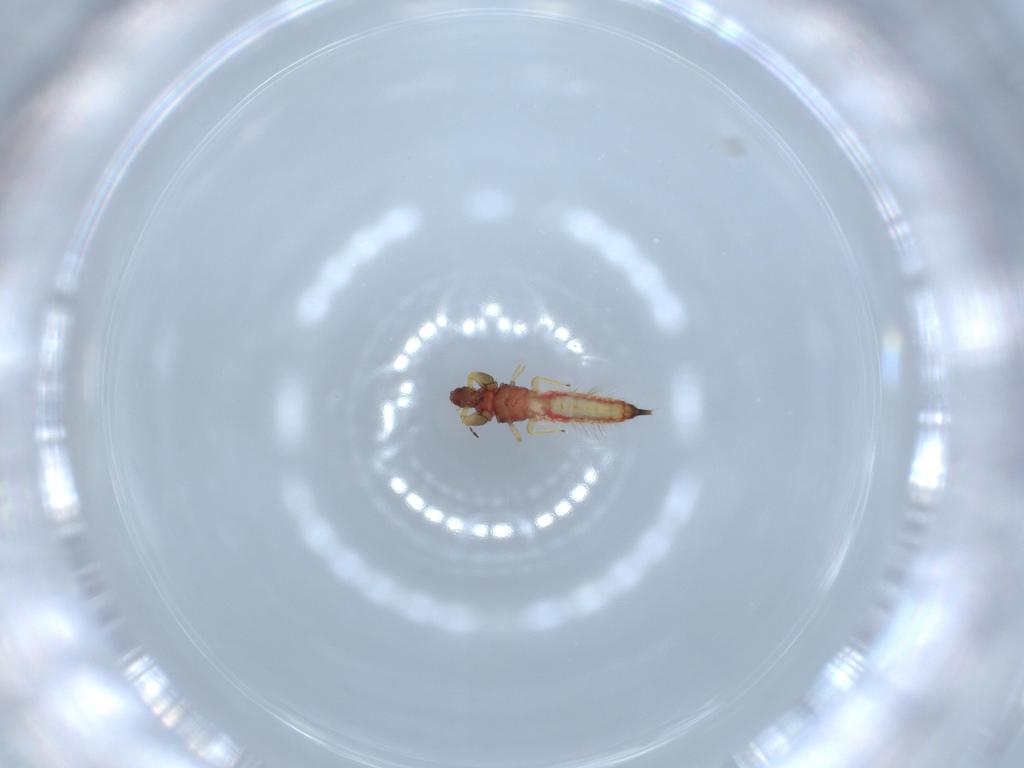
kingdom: Animalia
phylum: Arthropoda
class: Insecta
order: Thysanoptera
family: Phlaeothripidae
